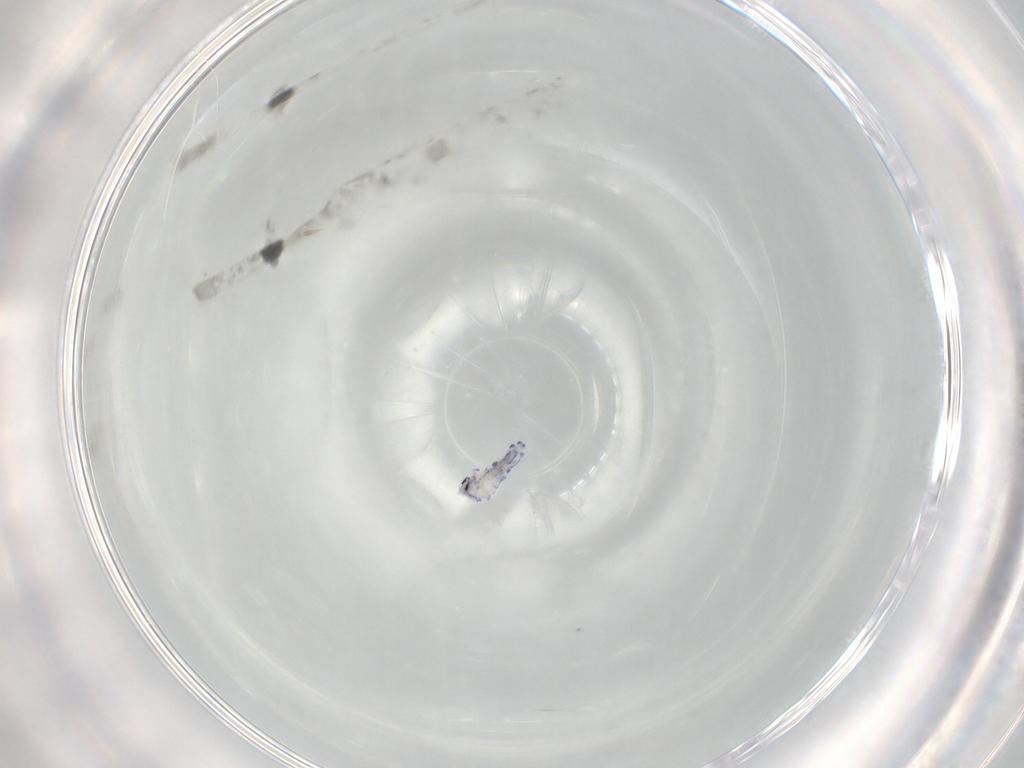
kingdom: Animalia
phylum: Arthropoda
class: Collembola
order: Entomobryomorpha
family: Entomobryidae
